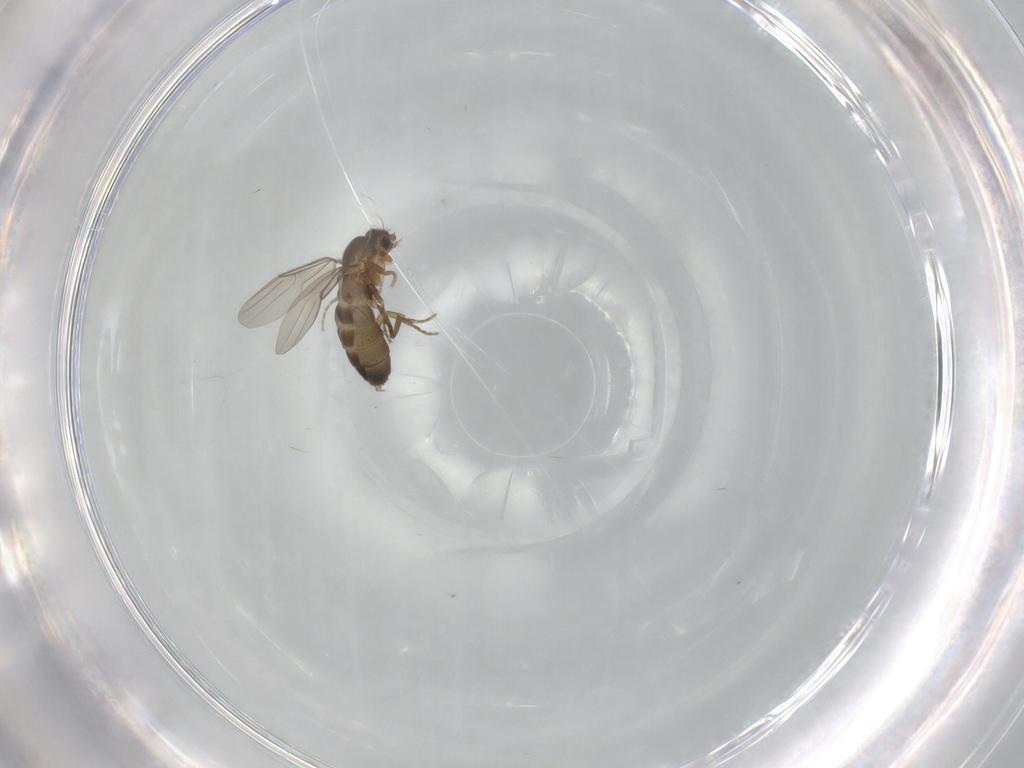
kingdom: Animalia
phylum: Arthropoda
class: Insecta
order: Diptera
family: Phoridae
